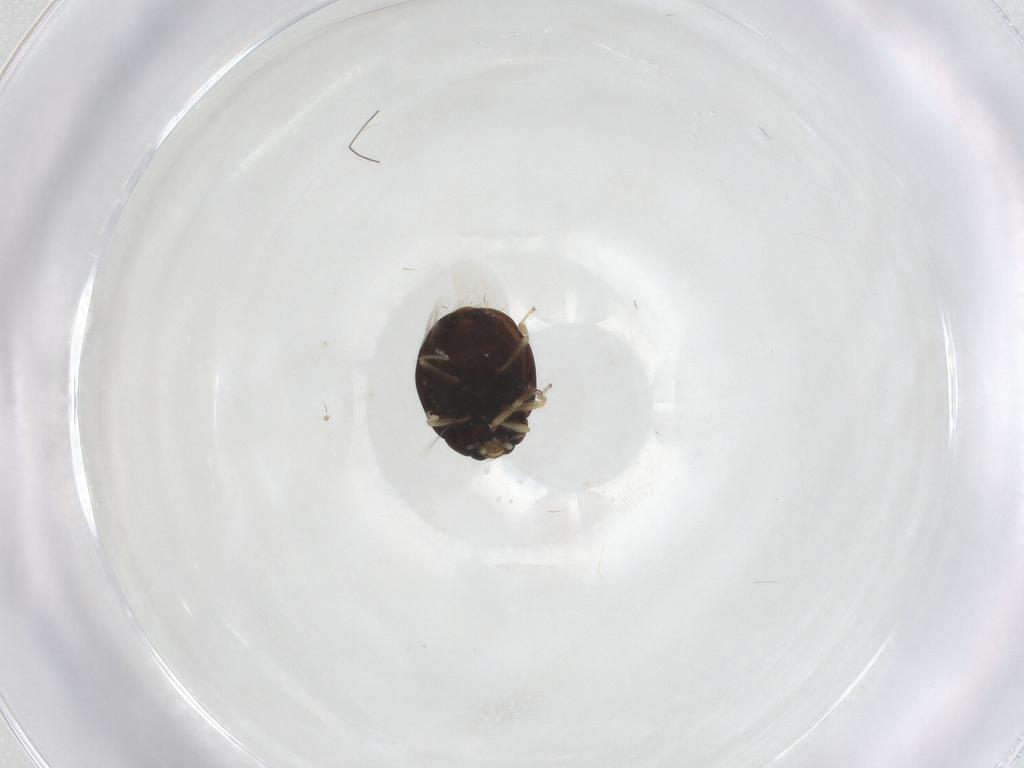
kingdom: Animalia
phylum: Arthropoda
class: Insecta
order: Coleoptera
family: Coccinellidae
